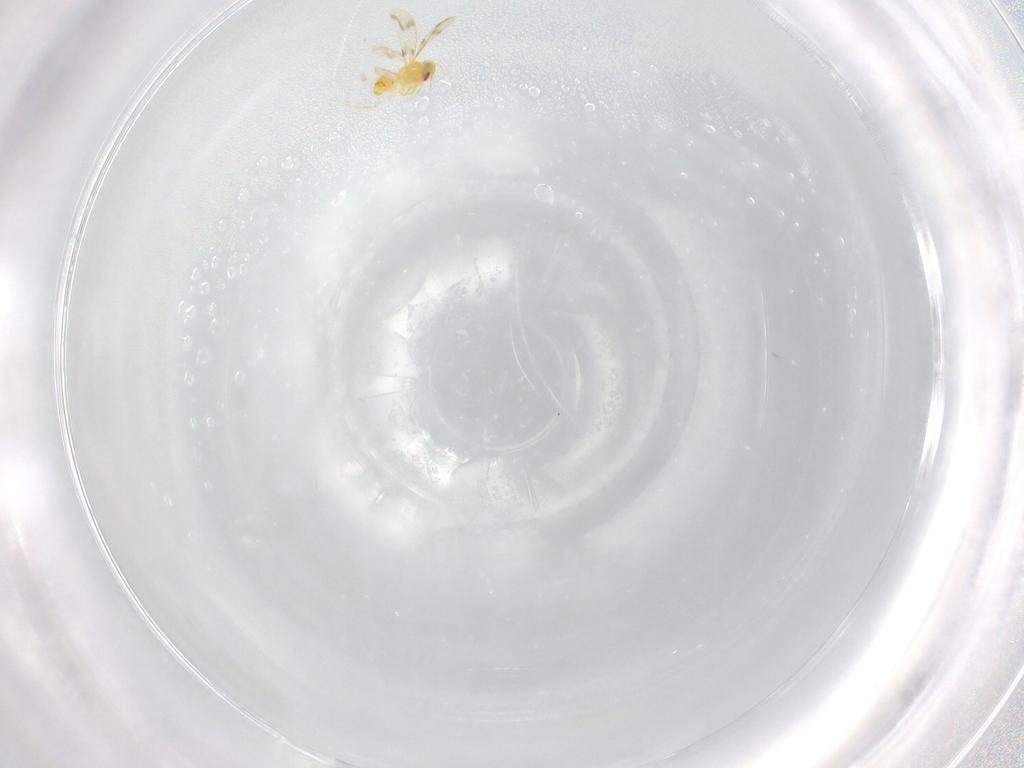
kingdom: Animalia
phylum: Arthropoda
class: Insecta
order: Hemiptera
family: Aleyrodidae
